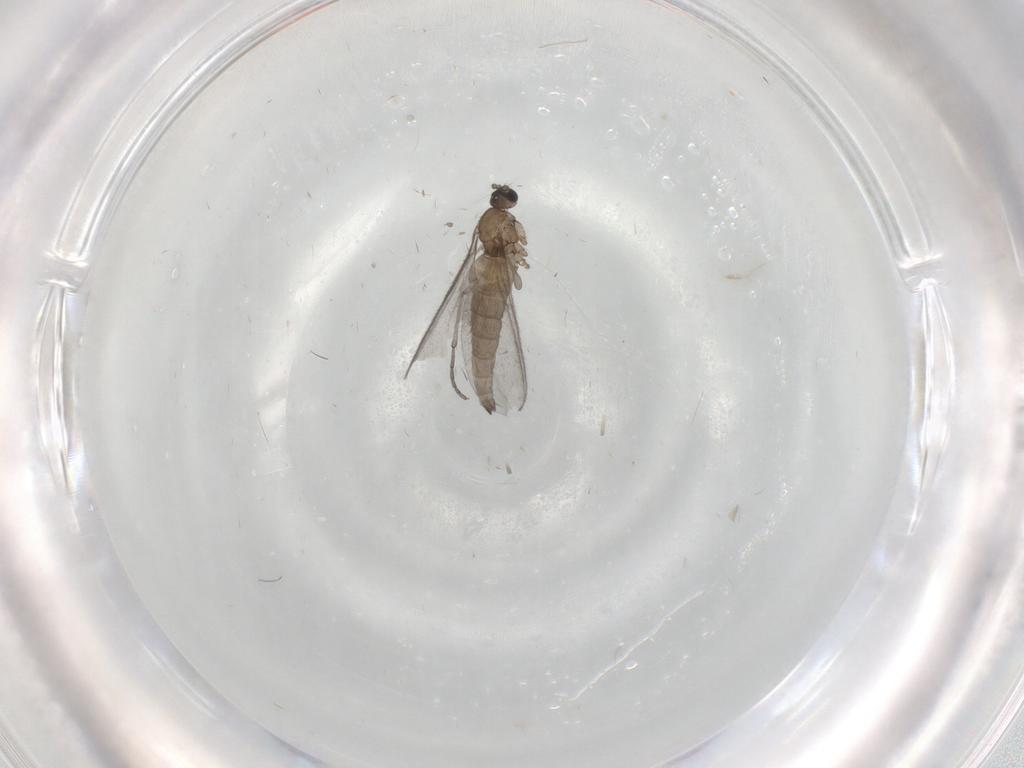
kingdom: Animalia
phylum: Arthropoda
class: Insecta
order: Diptera
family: Sciaridae
